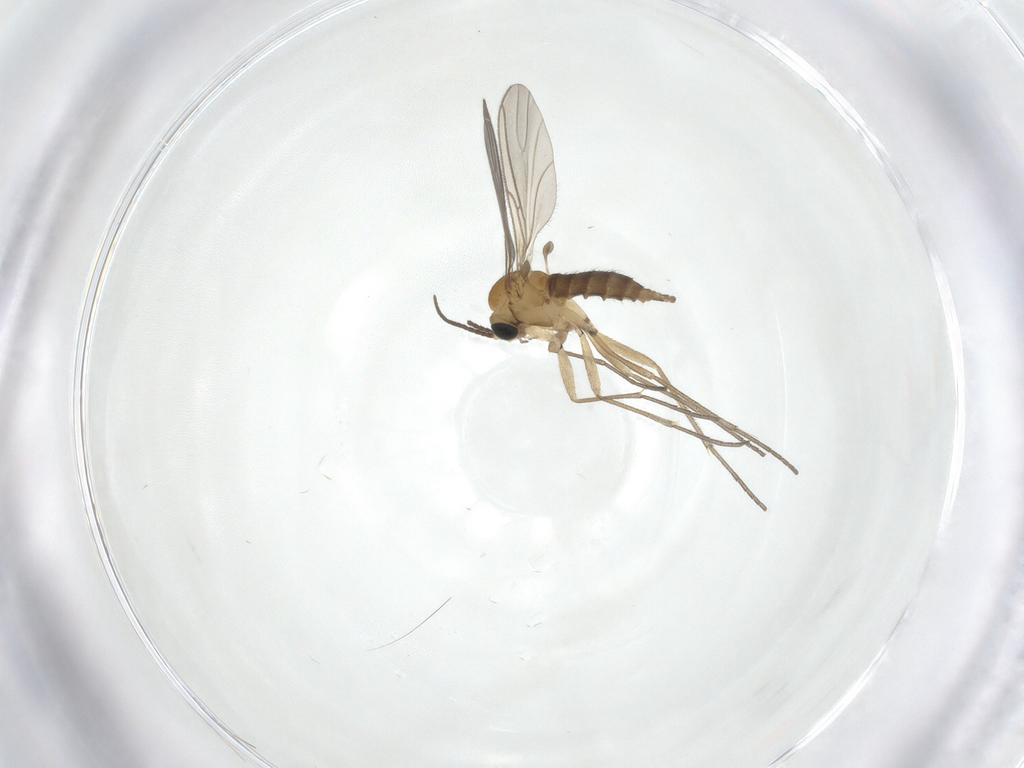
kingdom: Animalia
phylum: Arthropoda
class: Insecta
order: Diptera
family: Sciaridae
